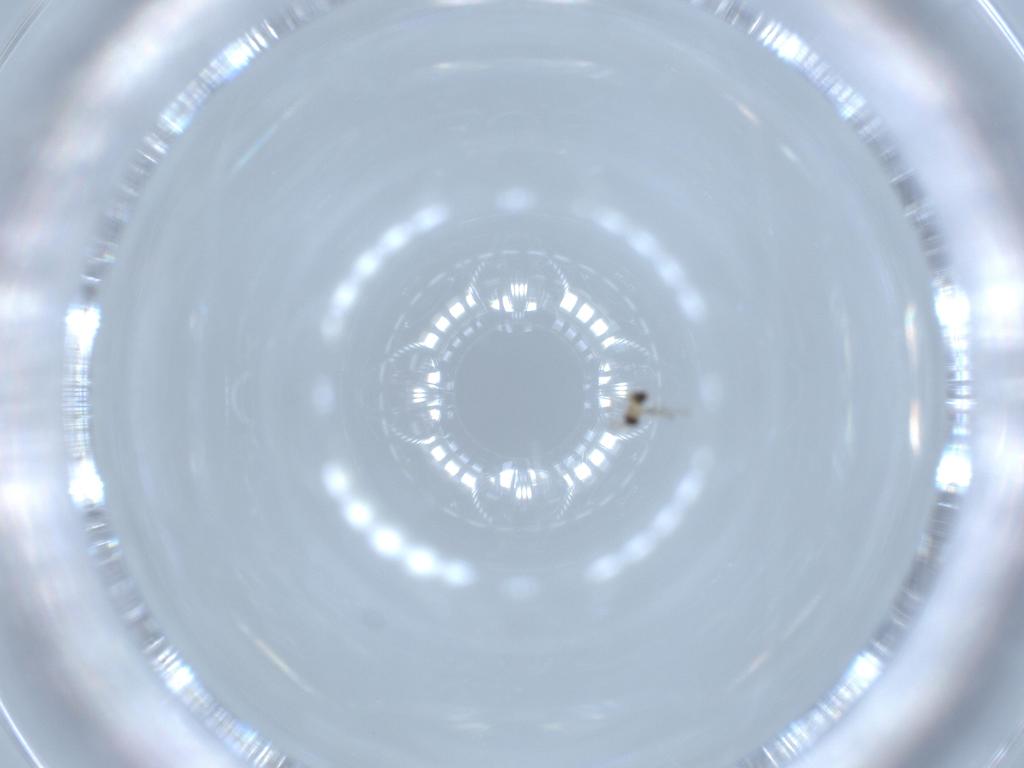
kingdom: Animalia
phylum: Arthropoda
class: Insecta
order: Hymenoptera
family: Mymaridae
